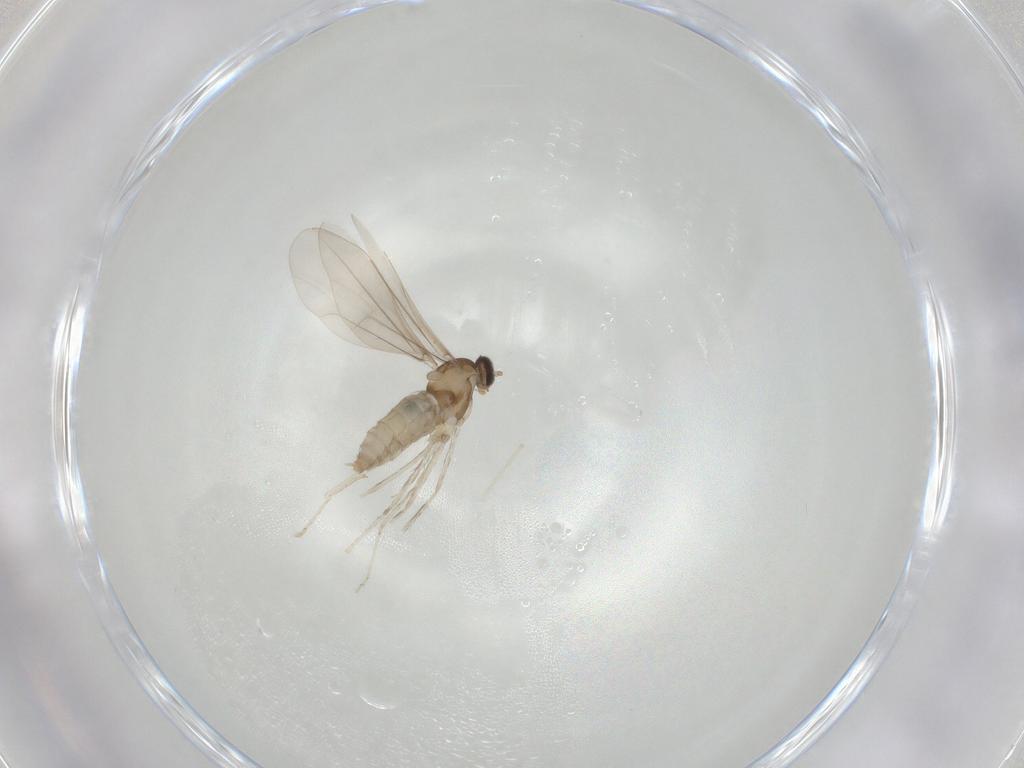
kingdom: Animalia
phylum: Arthropoda
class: Insecta
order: Diptera
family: Cecidomyiidae
